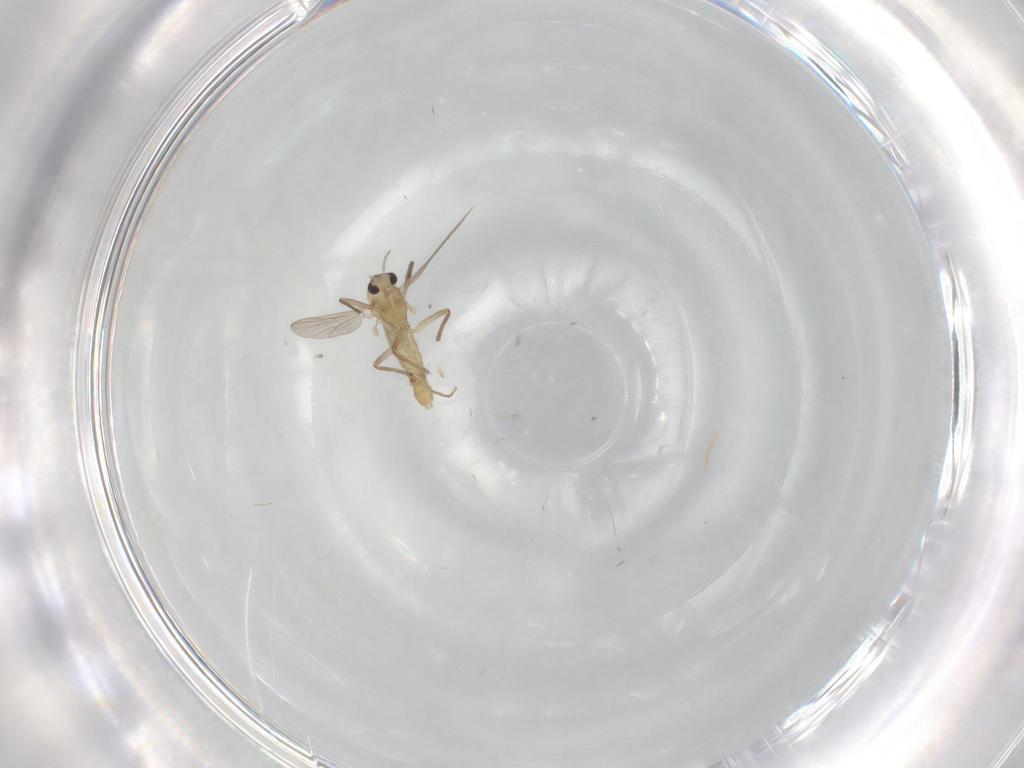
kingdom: Animalia
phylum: Arthropoda
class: Insecta
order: Diptera
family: Chironomidae
